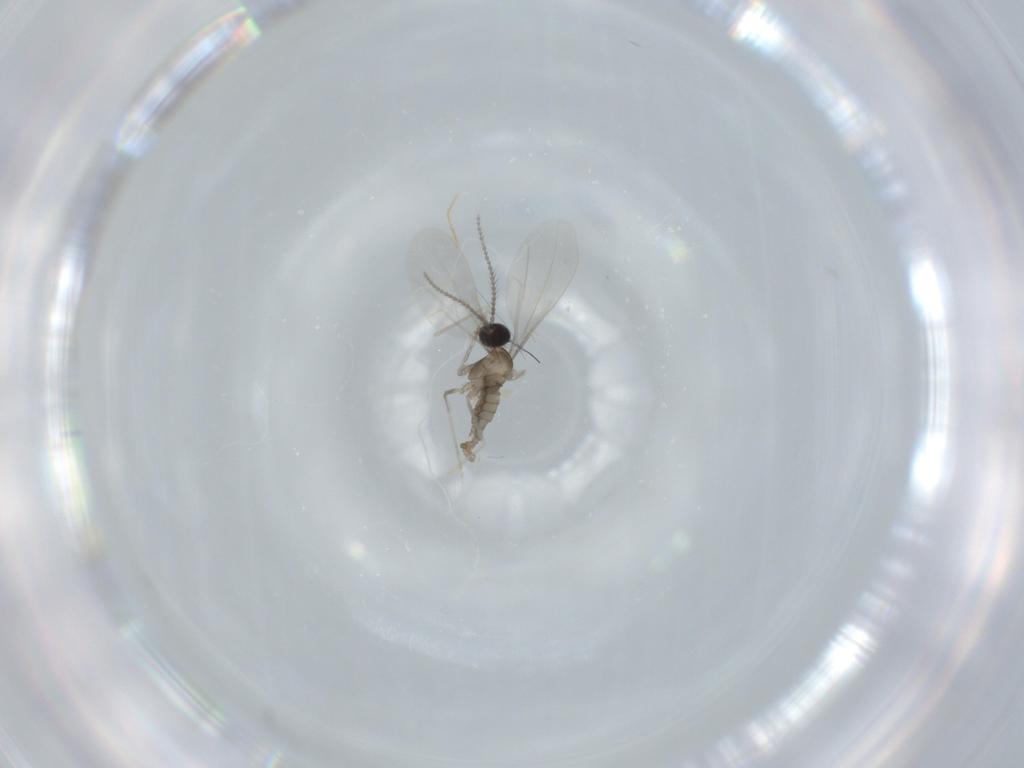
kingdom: Animalia
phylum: Arthropoda
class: Insecta
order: Diptera
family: Cecidomyiidae
